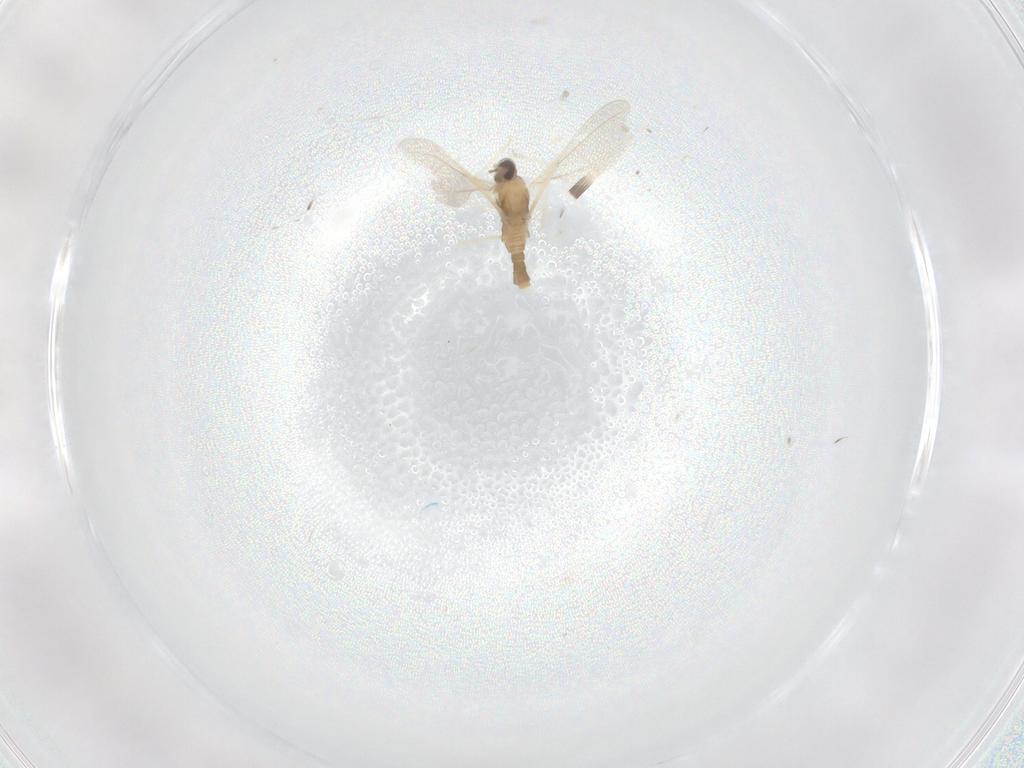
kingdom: Animalia
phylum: Arthropoda
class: Insecta
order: Diptera
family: Cecidomyiidae
